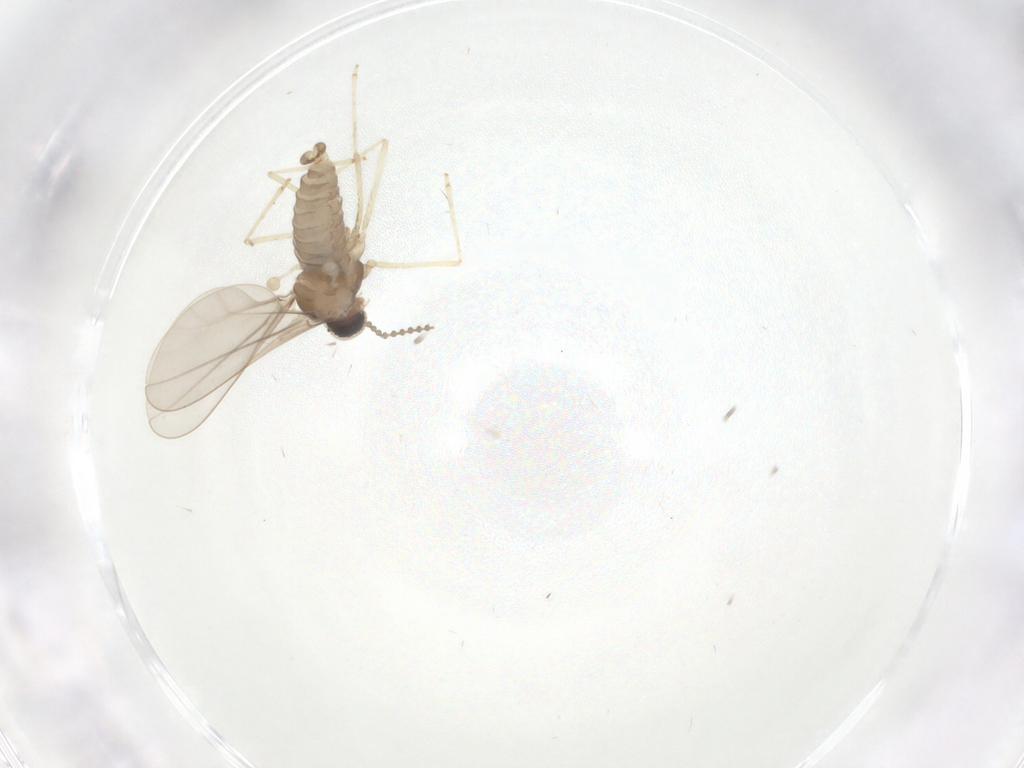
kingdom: Animalia
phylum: Arthropoda
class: Insecta
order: Diptera
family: Cecidomyiidae
